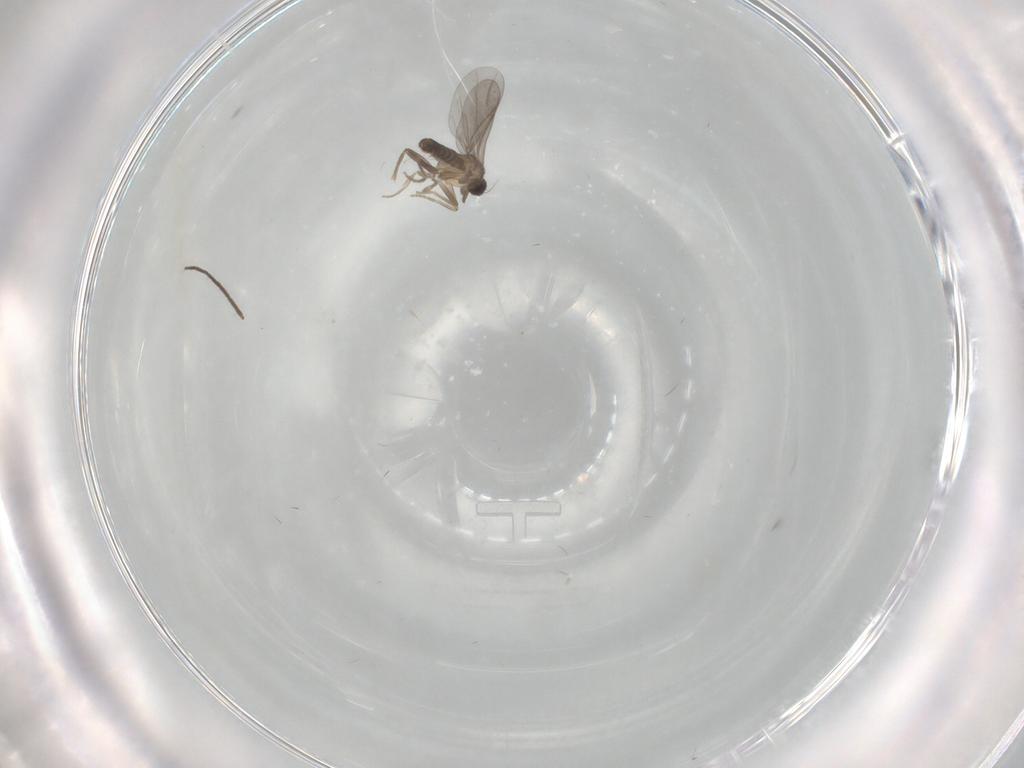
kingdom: Animalia
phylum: Arthropoda
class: Insecta
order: Diptera
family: Cecidomyiidae
